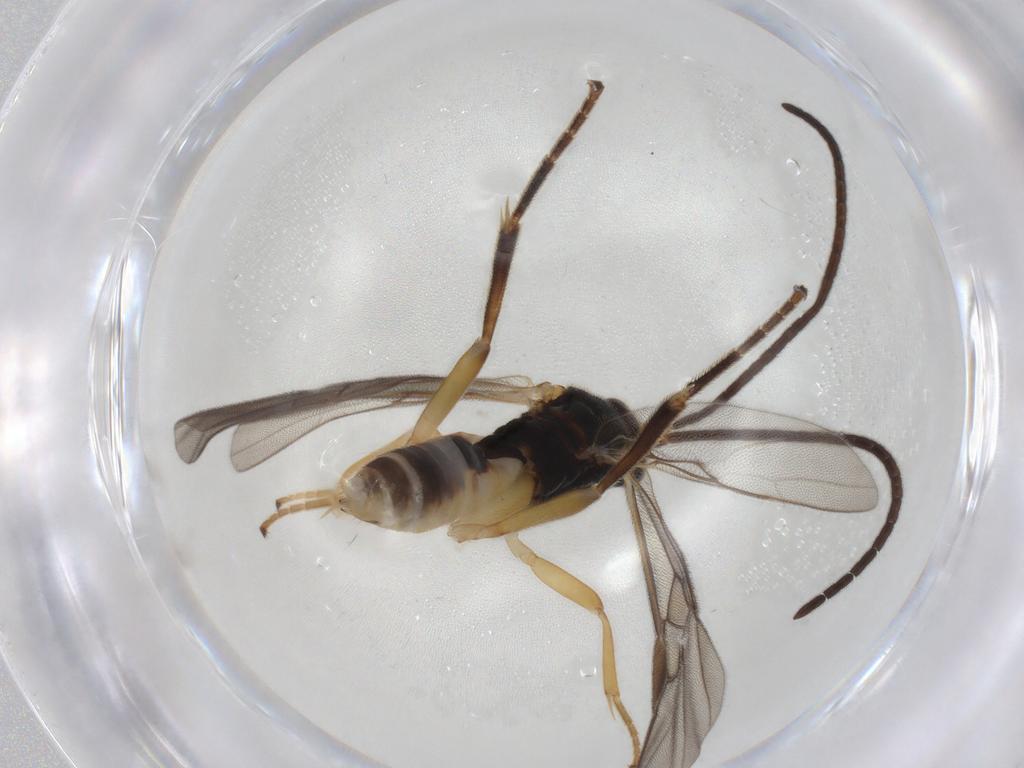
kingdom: Animalia
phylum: Arthropoda
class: Insecta
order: Hymenoptera
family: Braconidae
